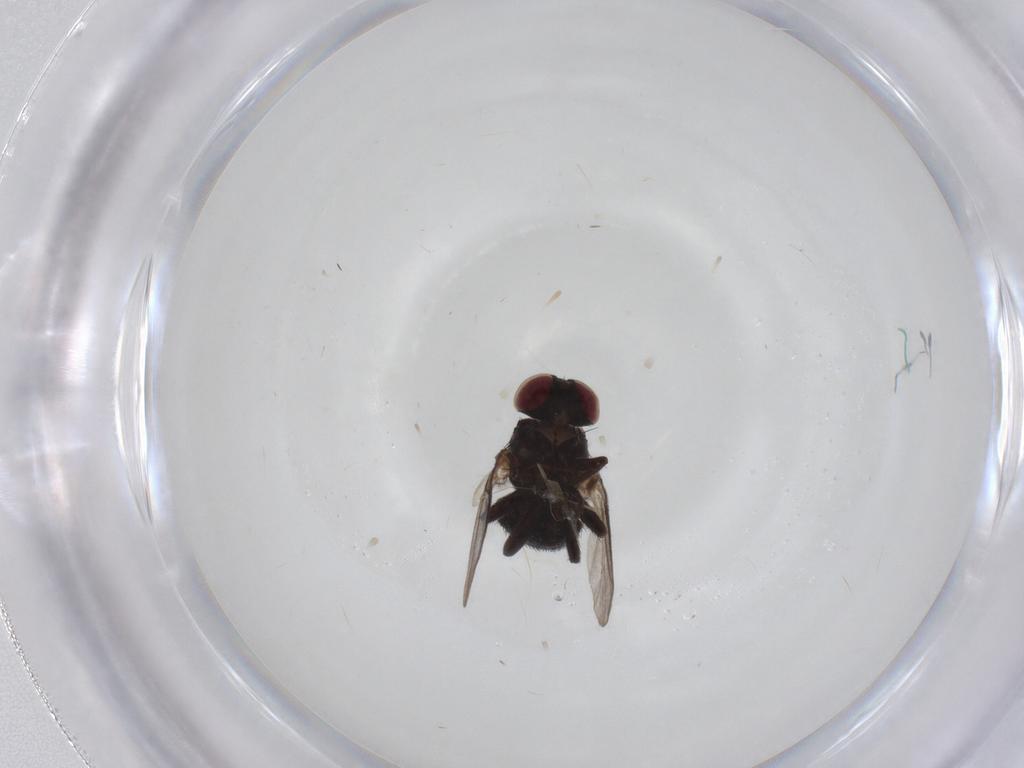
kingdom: Animalia
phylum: Arthropoda
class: Insecta
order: Diptera
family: Agromyzidae
